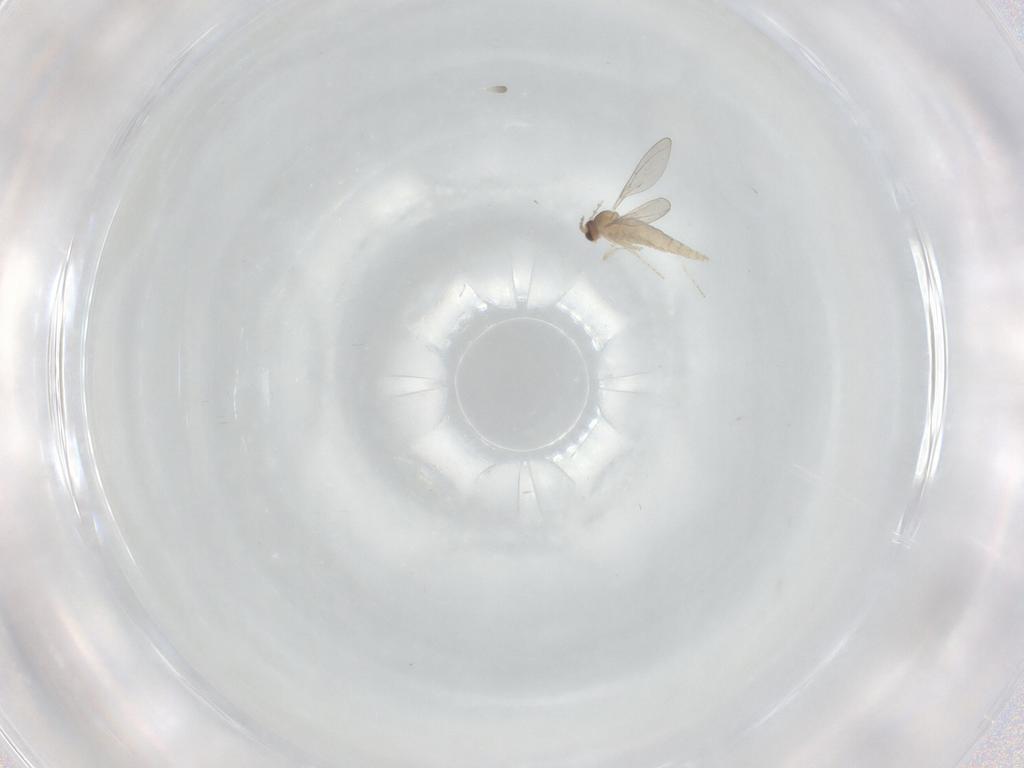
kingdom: Animalia
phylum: Arthropoda
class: Insecta
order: Diptera
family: Cecidomyiidae
